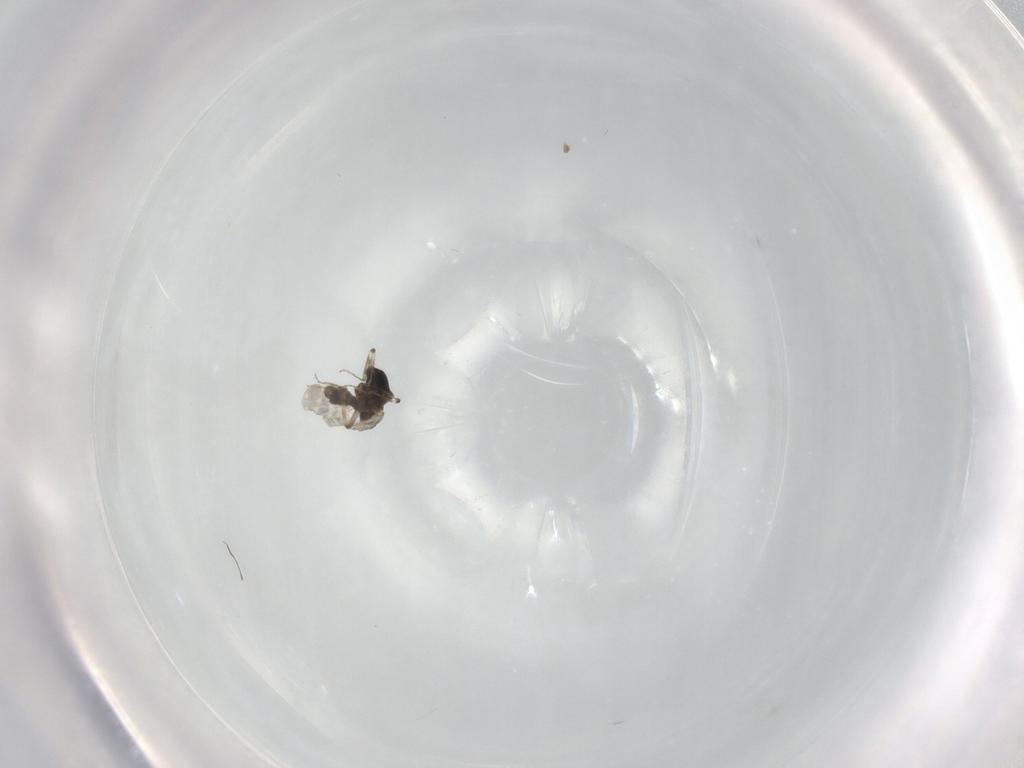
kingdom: Animalia
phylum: Arthropoda
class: Insecta
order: Diptera
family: Ceratopogonidae
